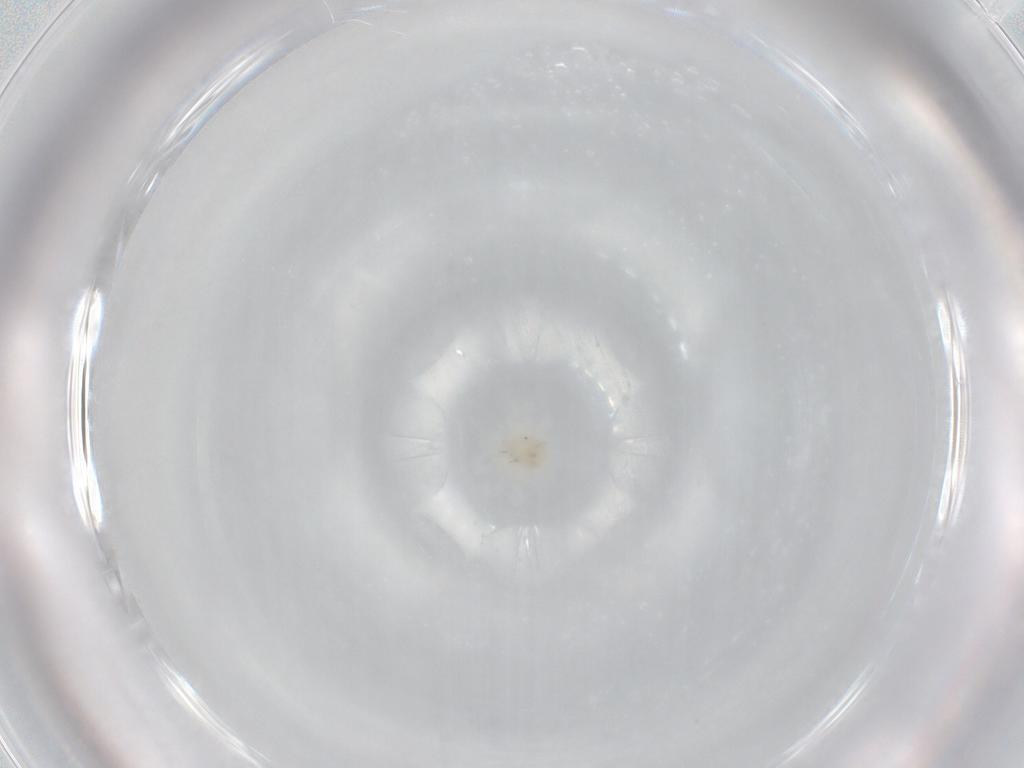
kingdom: Animalia
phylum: Arthropoda
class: Arachnida
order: Trombidiformes
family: Anystidae
